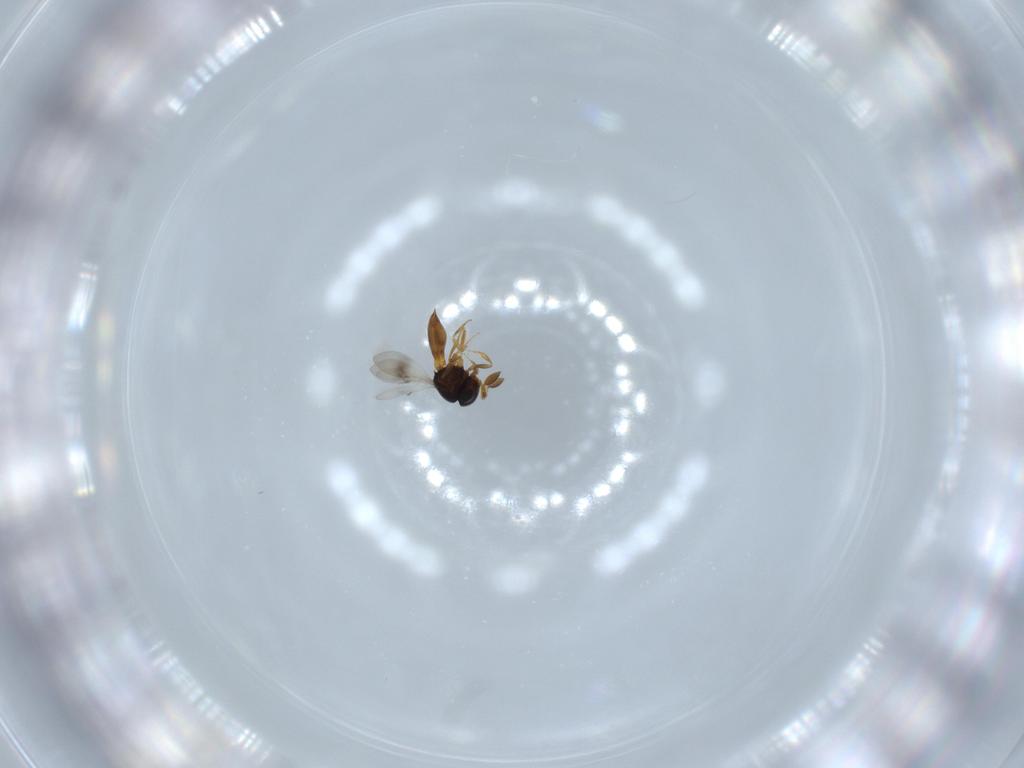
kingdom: Animalia
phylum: Arthropoda
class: Insecta
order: Hymenoptera
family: Scelionidae
